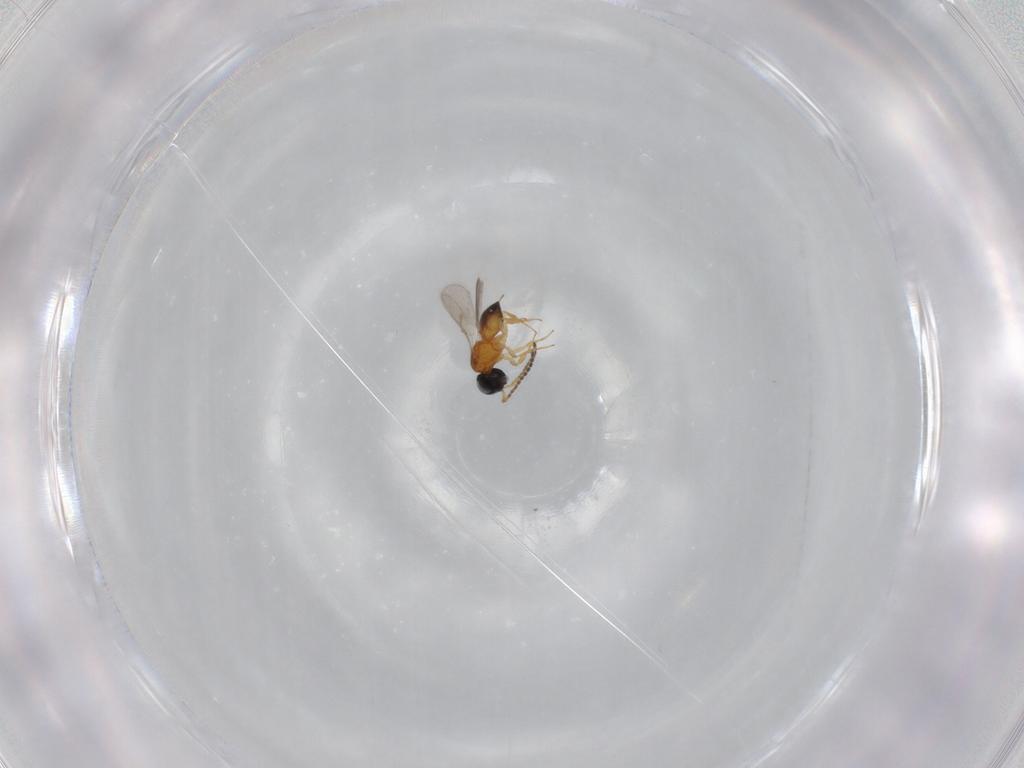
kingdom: Animalia
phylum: Arthropoda
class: Insecta
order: Hymenoptera
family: Scelionidae
